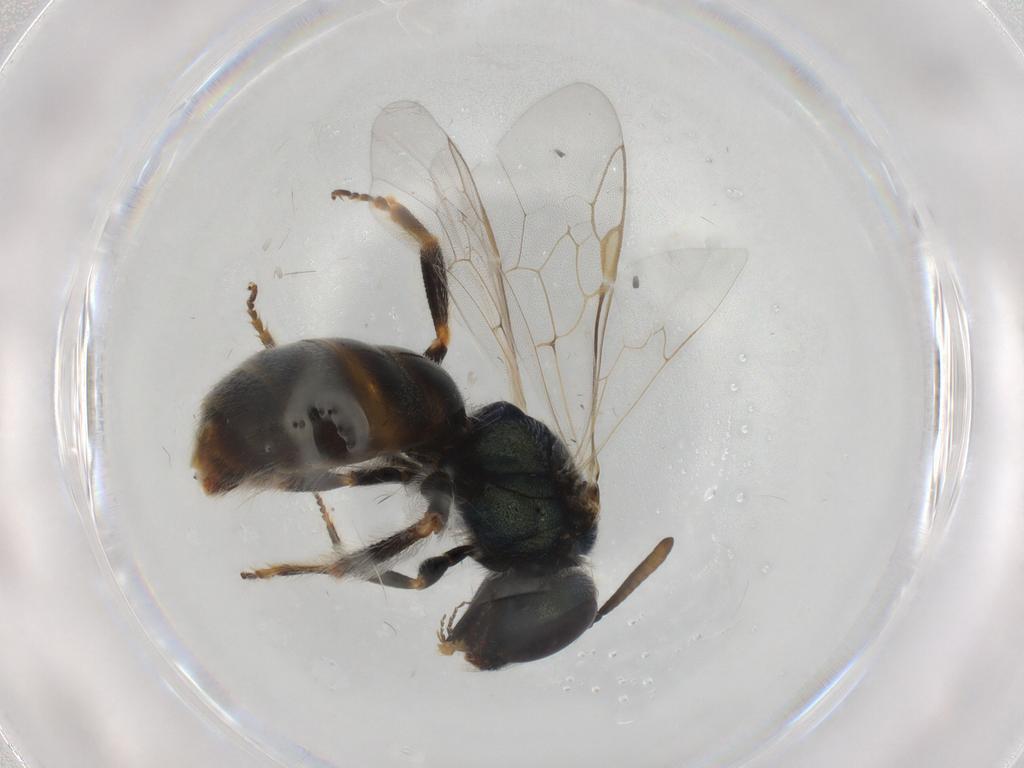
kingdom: Animalia
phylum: Arthropoda
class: Insecta
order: Hymenoptera
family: Halictidae
